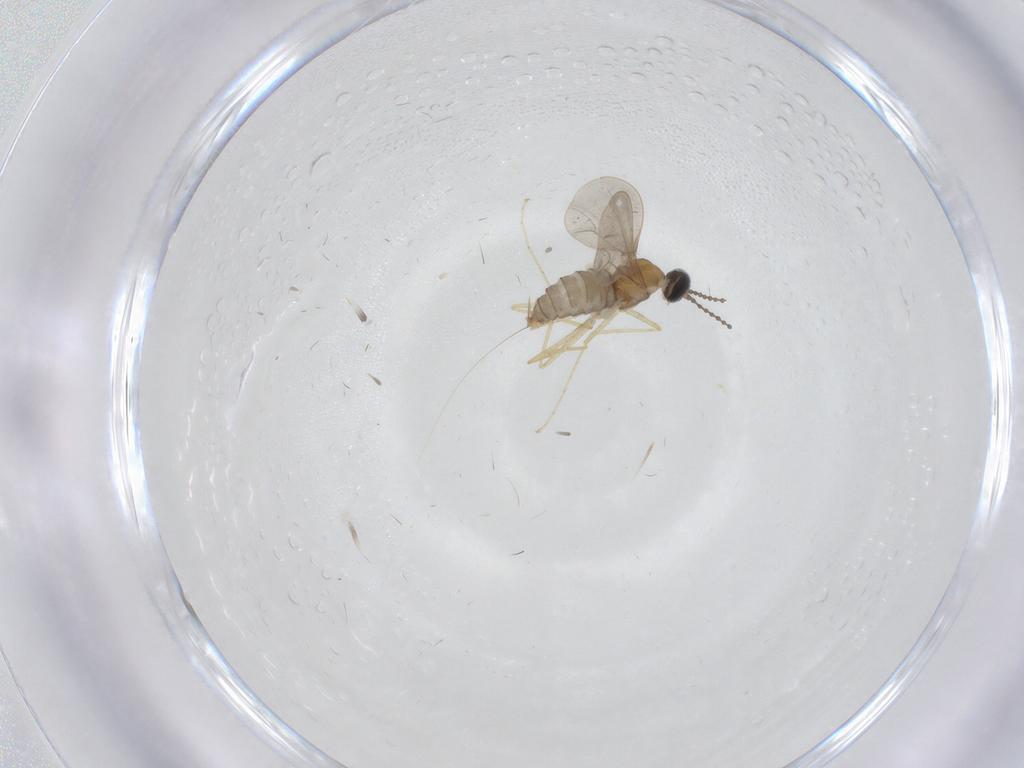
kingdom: Animalia
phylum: Arthropoda
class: Insecta
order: Diptera
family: Cecidomyiidae
